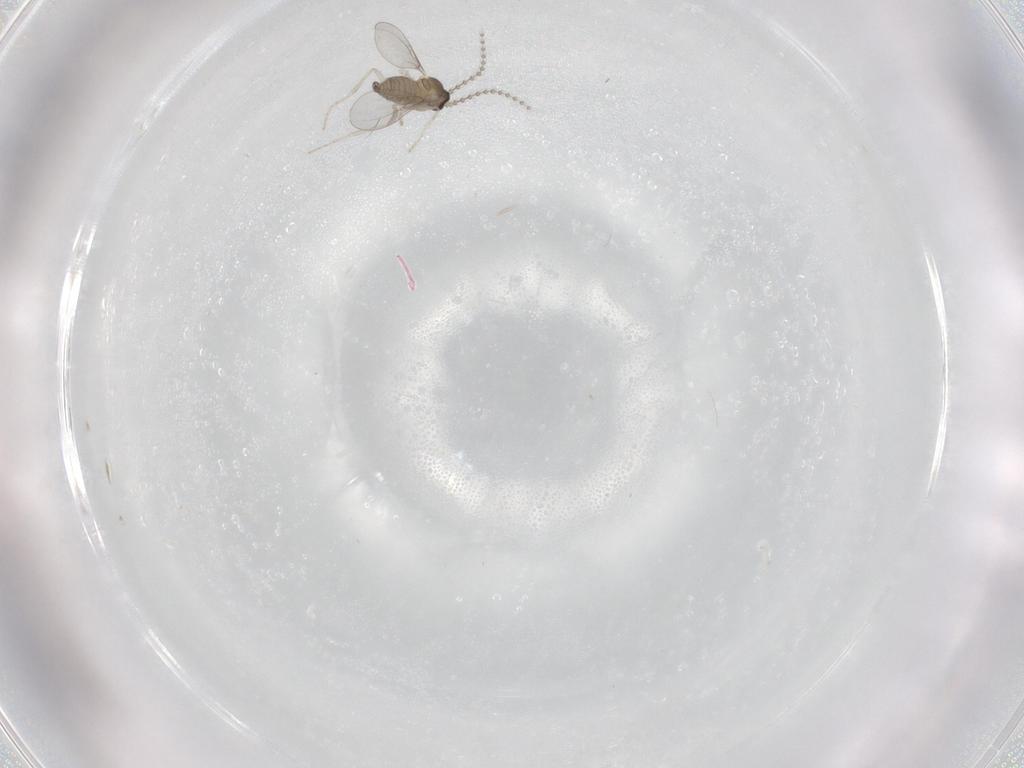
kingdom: Animalia
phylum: Arthropoda
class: Insecta
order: Diptera
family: Cecidomyiidae
